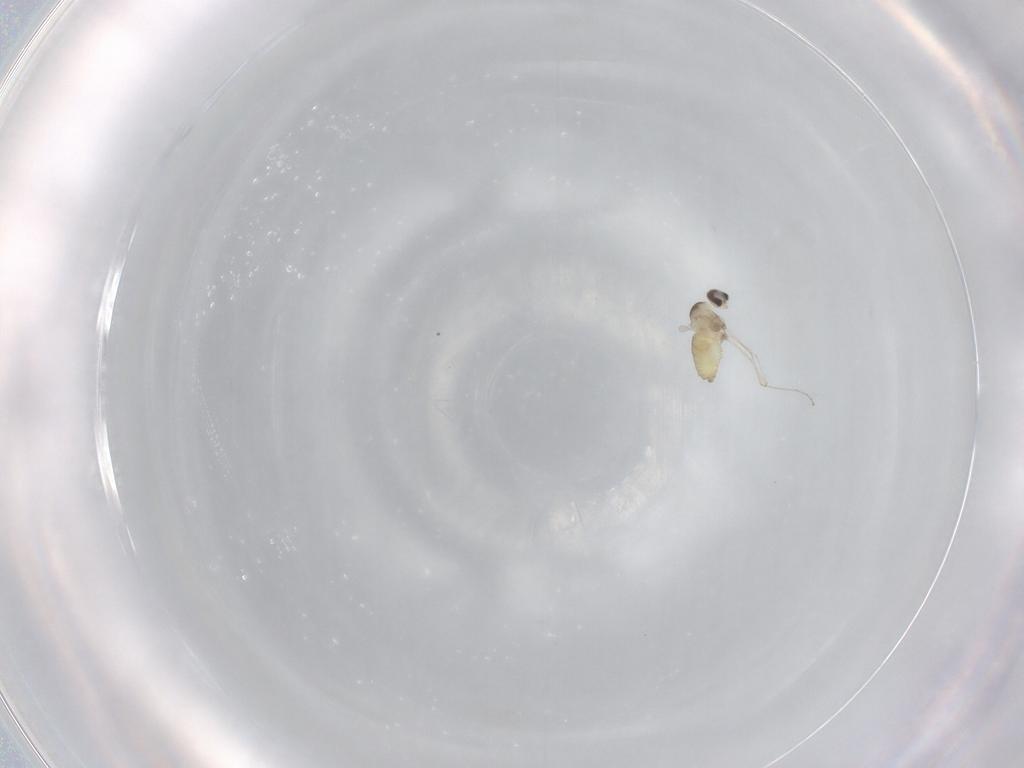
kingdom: Animalia
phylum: Arthropoda
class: Insecta
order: Diptera
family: Cecidomyiidae
